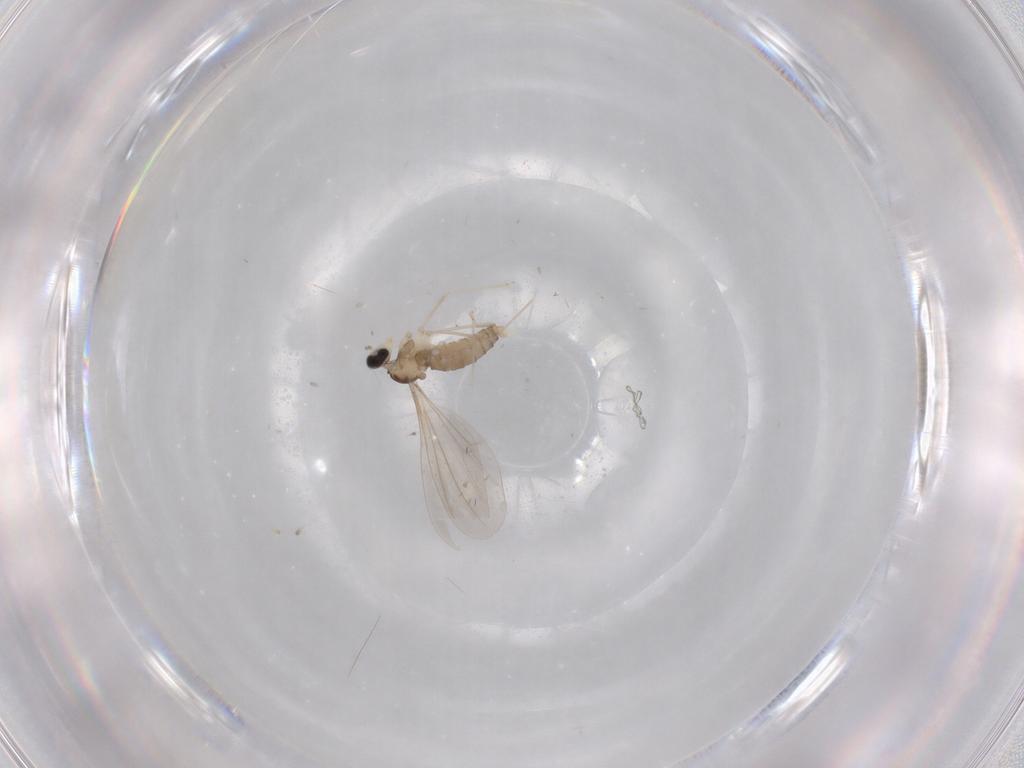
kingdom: Animalia
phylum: Arthropoda
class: Insecta
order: Diptera
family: Cecidomyiidae
